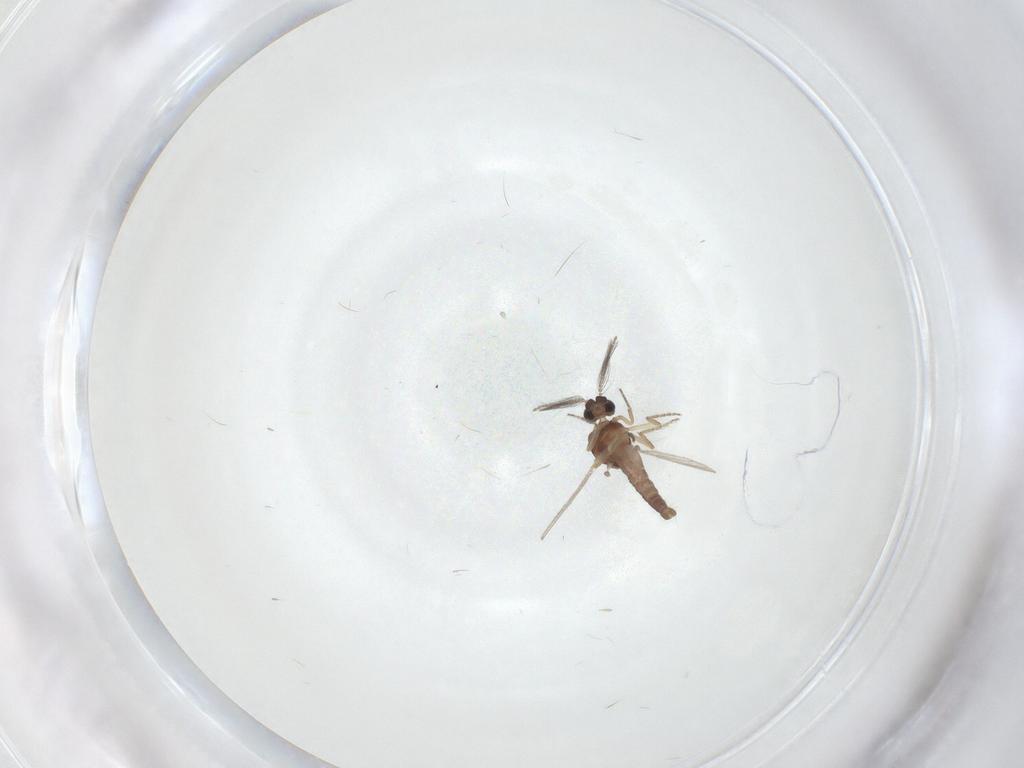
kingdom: Animalia
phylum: Arthropoda
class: Insecta
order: Diptera
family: Ceratopogonidae
